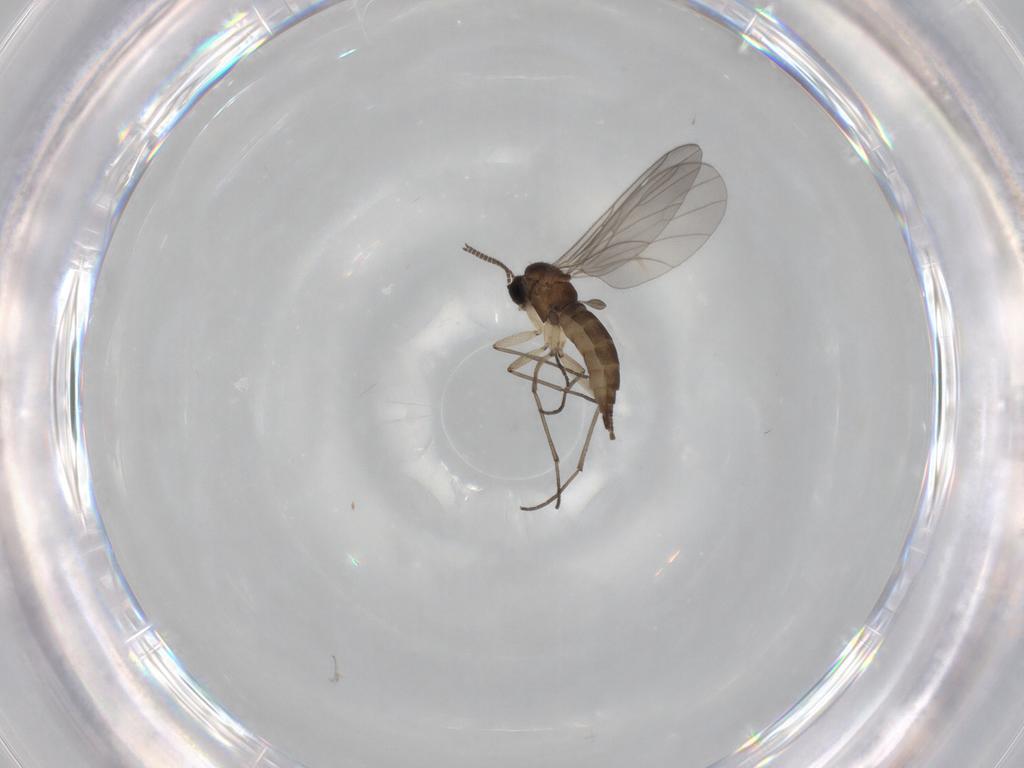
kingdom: Animalia
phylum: Arthropoda
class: Insecta
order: Diptera
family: Sciaridae
